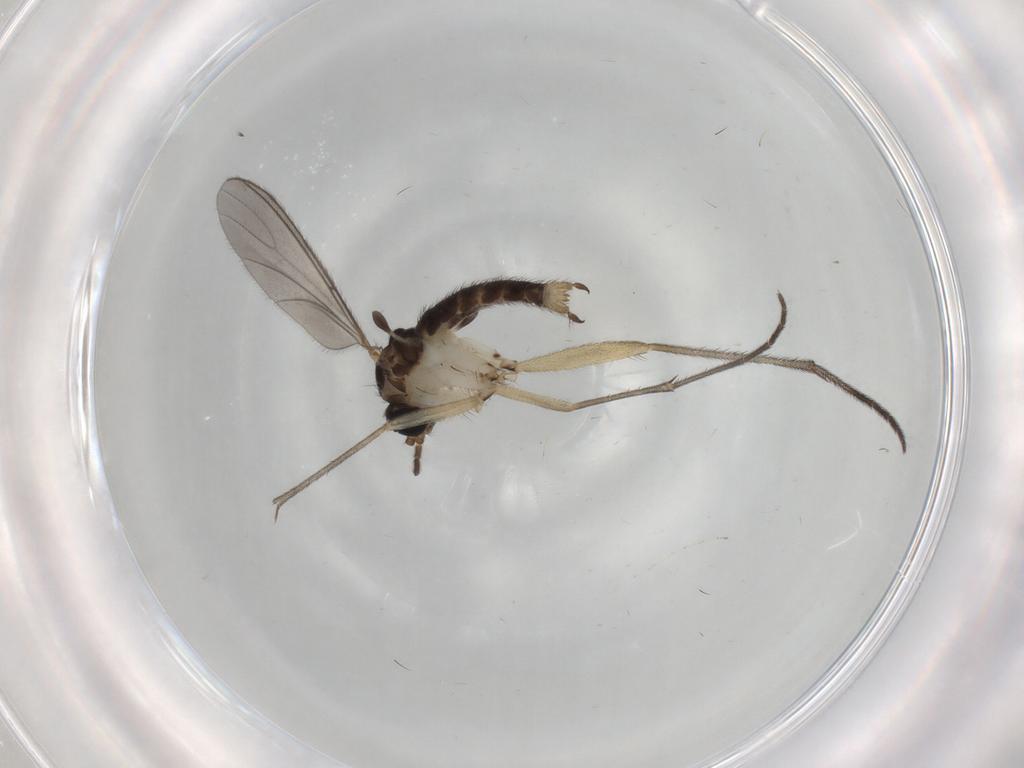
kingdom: Animalia
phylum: Arthropoda
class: Insecta
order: Diptera
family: Sciaridae
